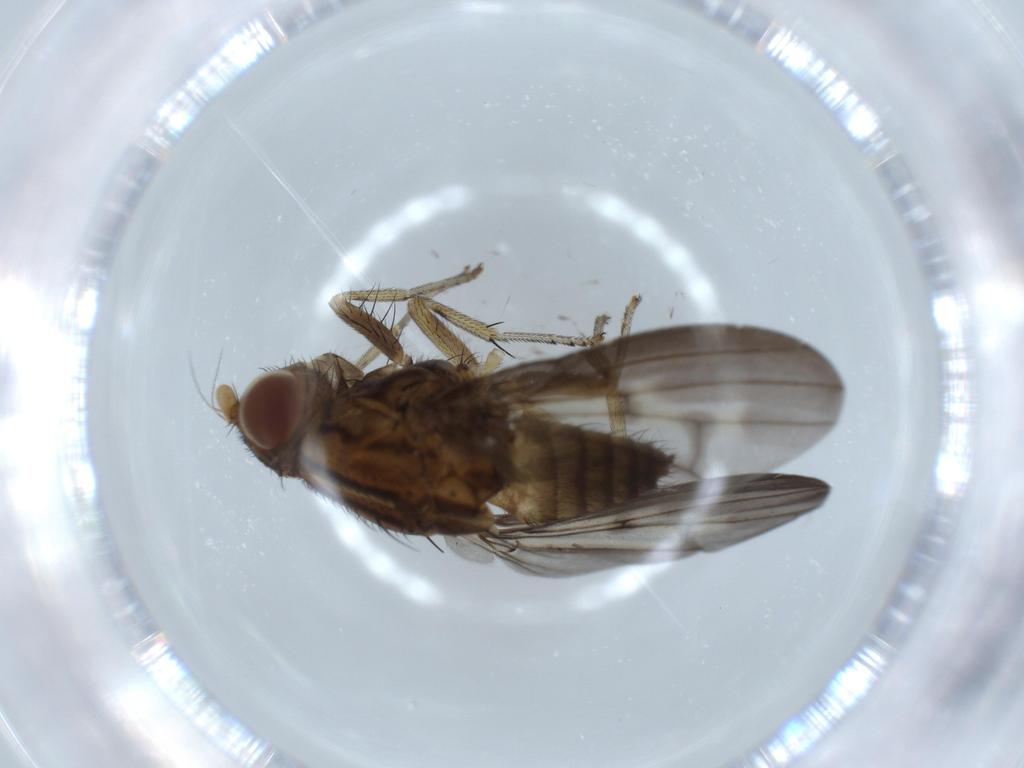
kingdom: Animalia
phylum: Arthropoda
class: Insecta
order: Diptera
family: Lauxaniidae
